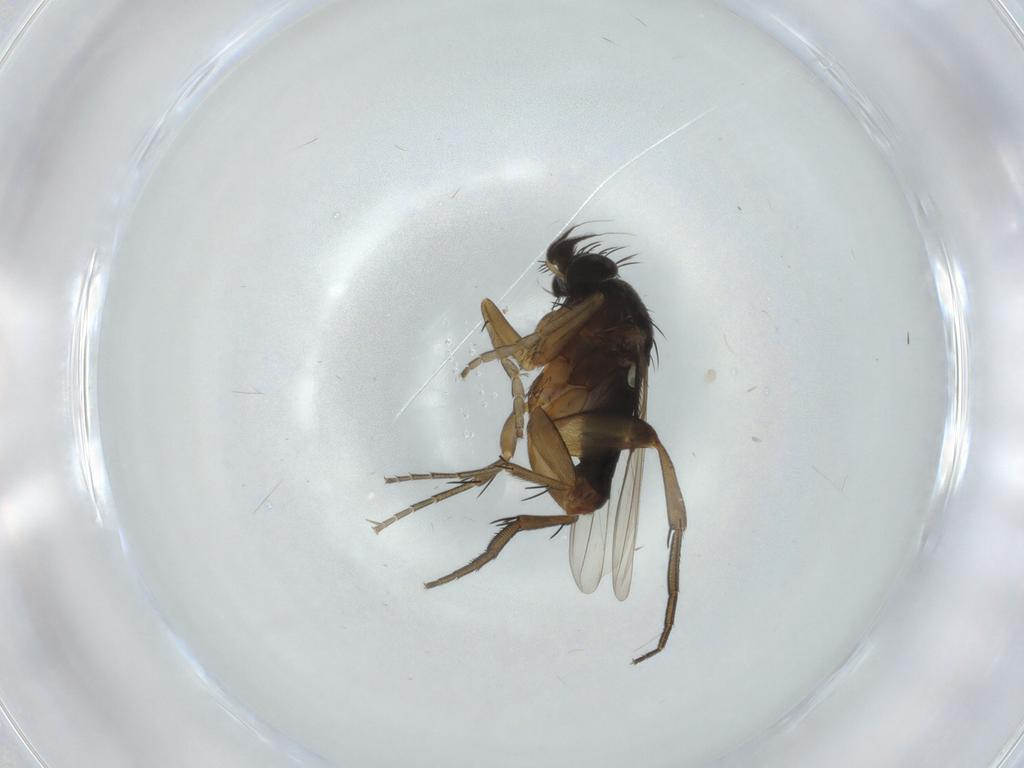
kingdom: Animalia
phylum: Arthropoda
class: Insecta
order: Diptera
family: Phoridae
